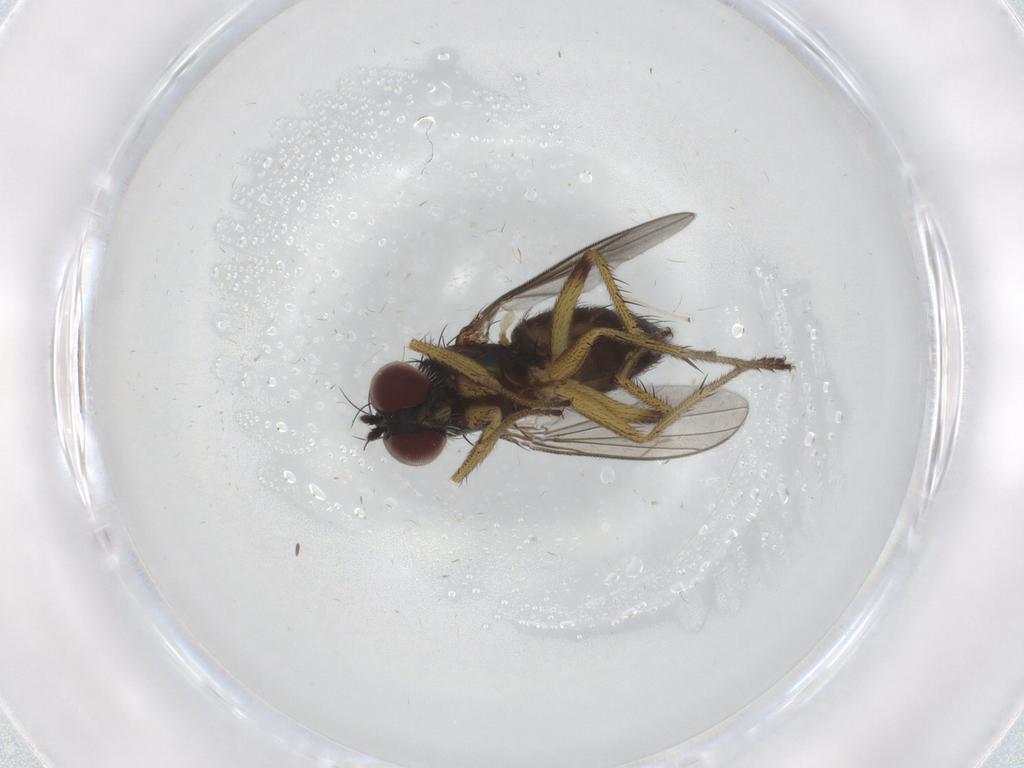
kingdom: Animalia
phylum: Arthropoda
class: Insecta
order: Diptera
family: Dolichopodidae
